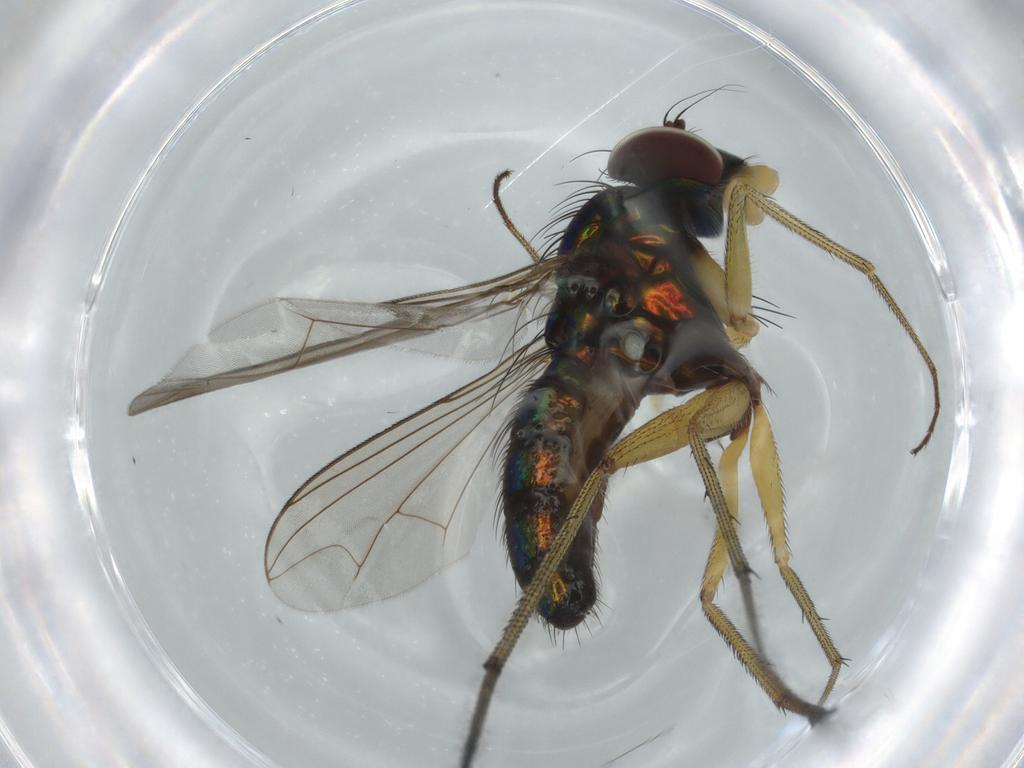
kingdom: Animalia
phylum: Arthropoda
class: Insecta
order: Diptera
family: Dolichopodidae
